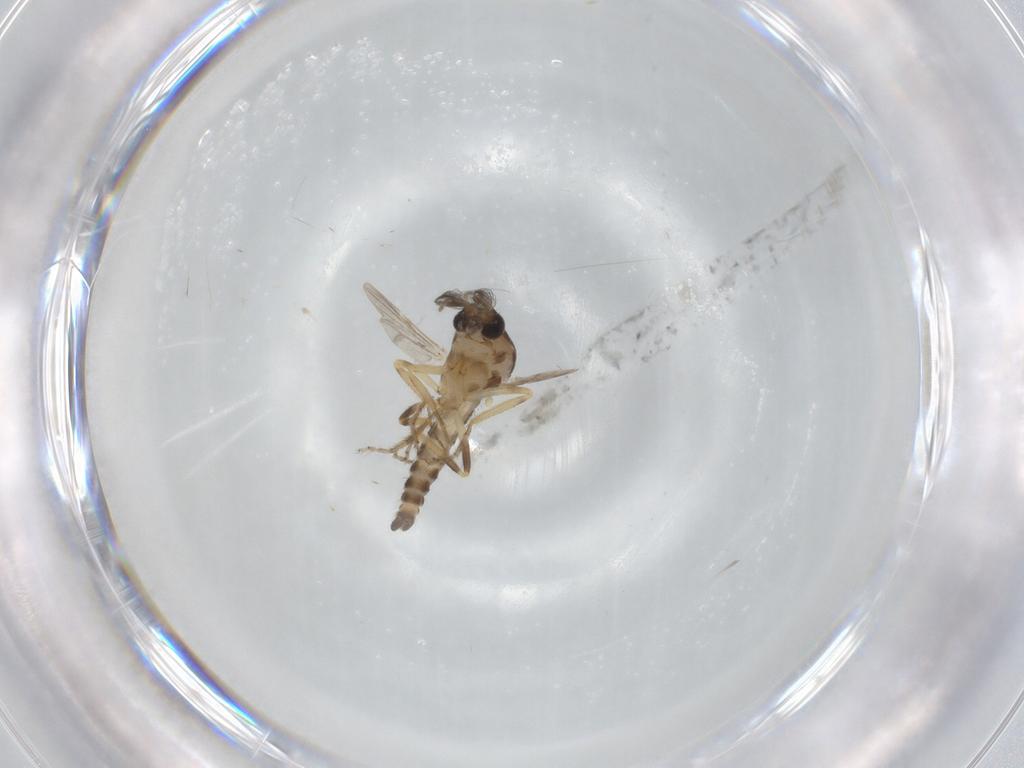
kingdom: Animalia
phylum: Arthropoda
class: Insecta
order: Diptera
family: Ceratopogonidae
